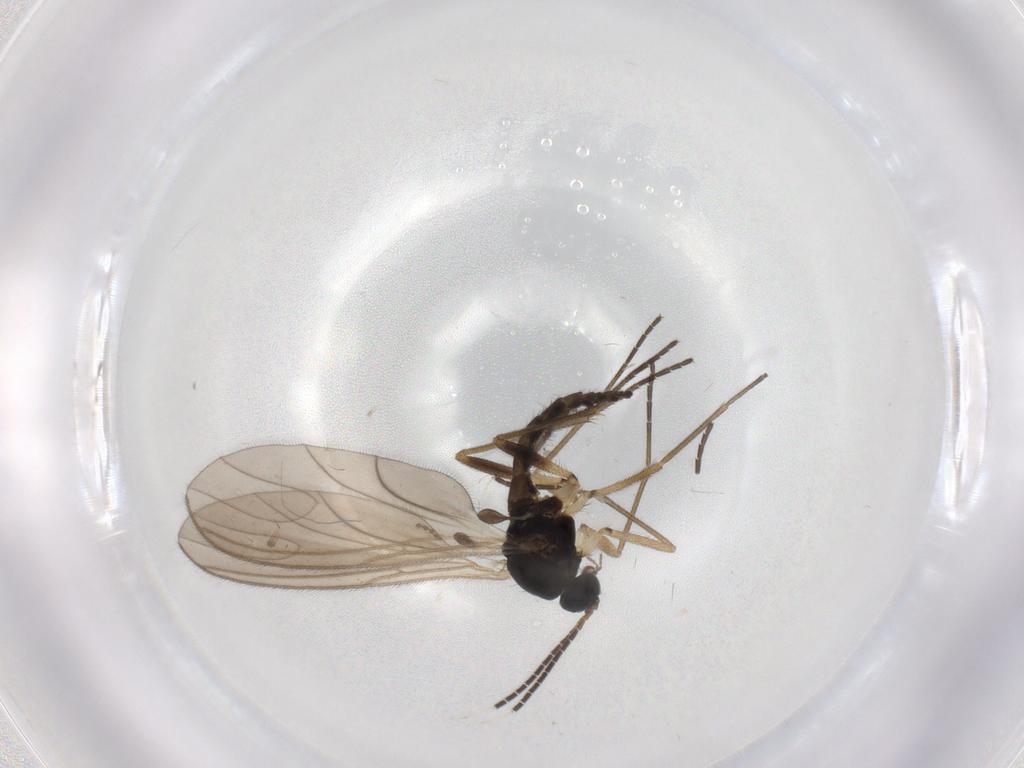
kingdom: Animalia
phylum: Arthropoda
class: Insecta
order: Diptera
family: Sciaridae
